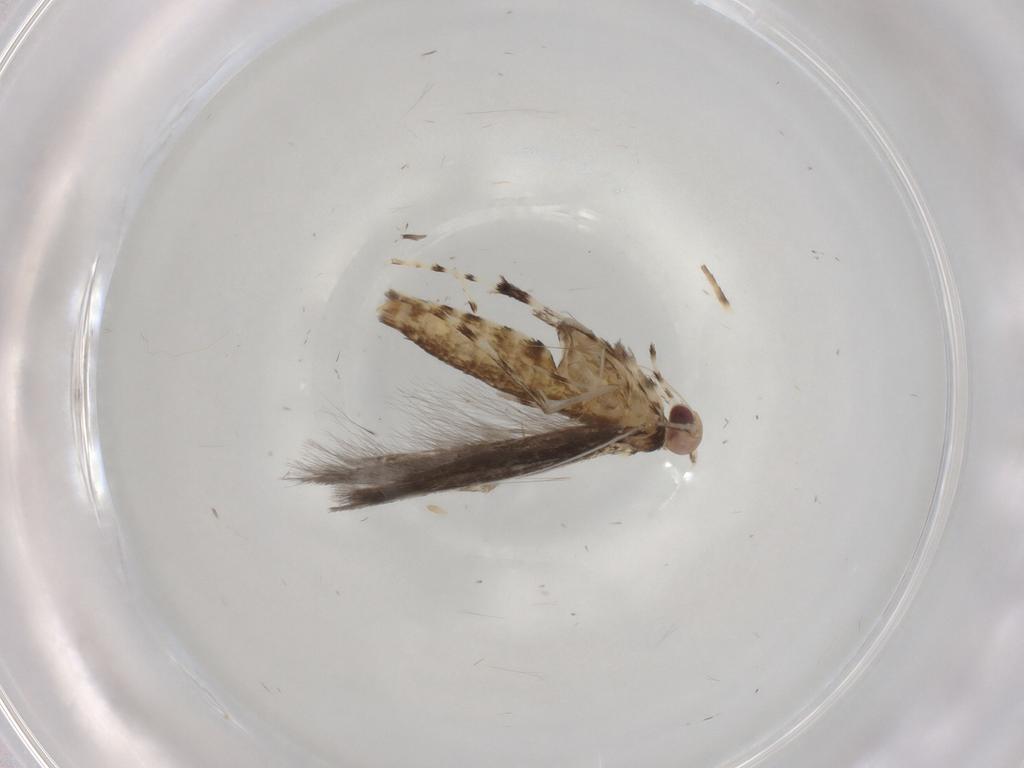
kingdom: Animalia
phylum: Arthropoda
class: Insecta
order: Lepidoptera
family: Gracillariidae
